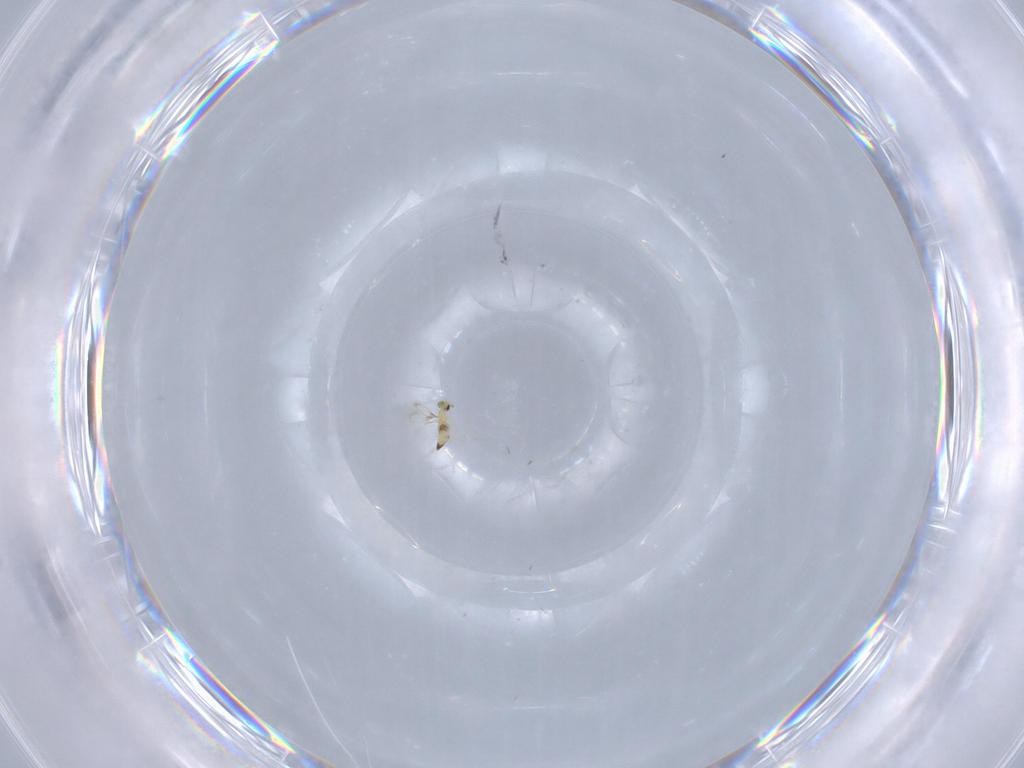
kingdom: Animalia
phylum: Arthropoda
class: Insecta
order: Hymenoptera
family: Trichogrammatidae
